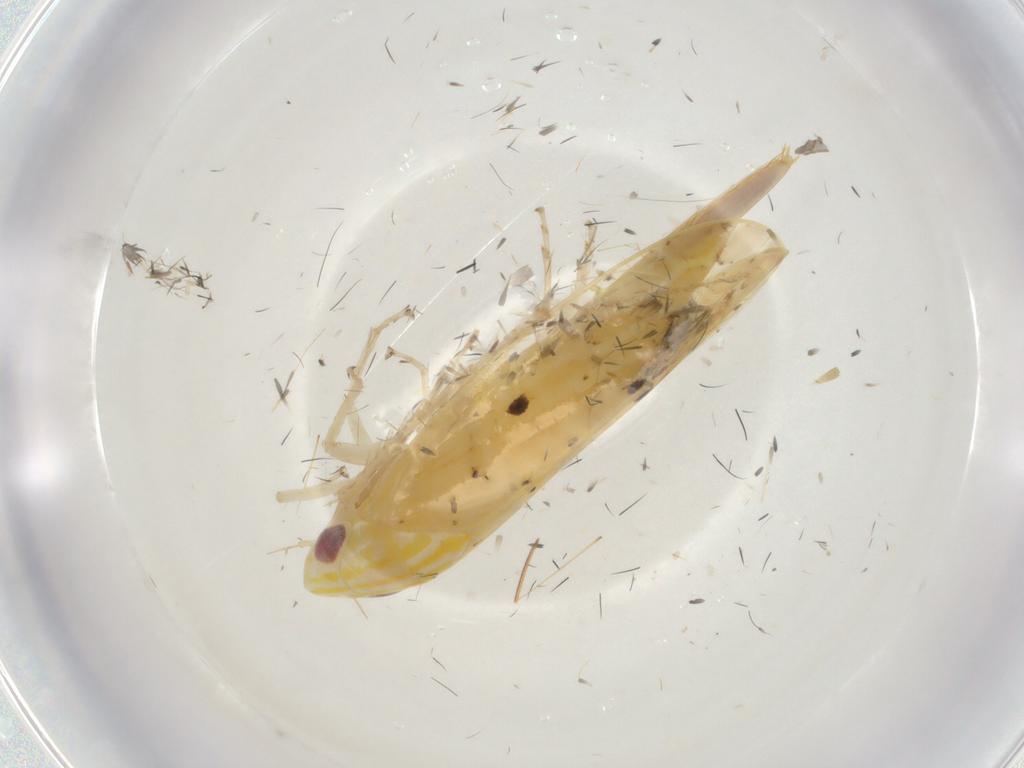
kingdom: Animalia
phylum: Arthropoda
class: Insecta
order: Hemiptera
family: Cicadellidae
